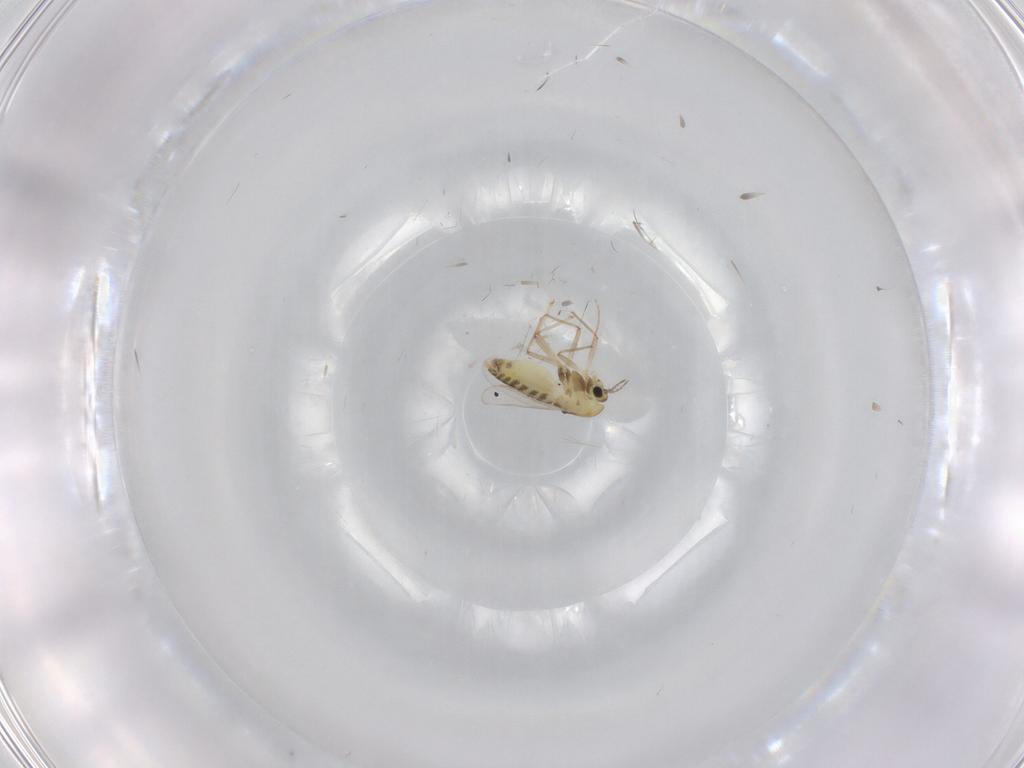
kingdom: Animalia
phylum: Arthropoda
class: Insecta
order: Diptera
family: Chironomidae
